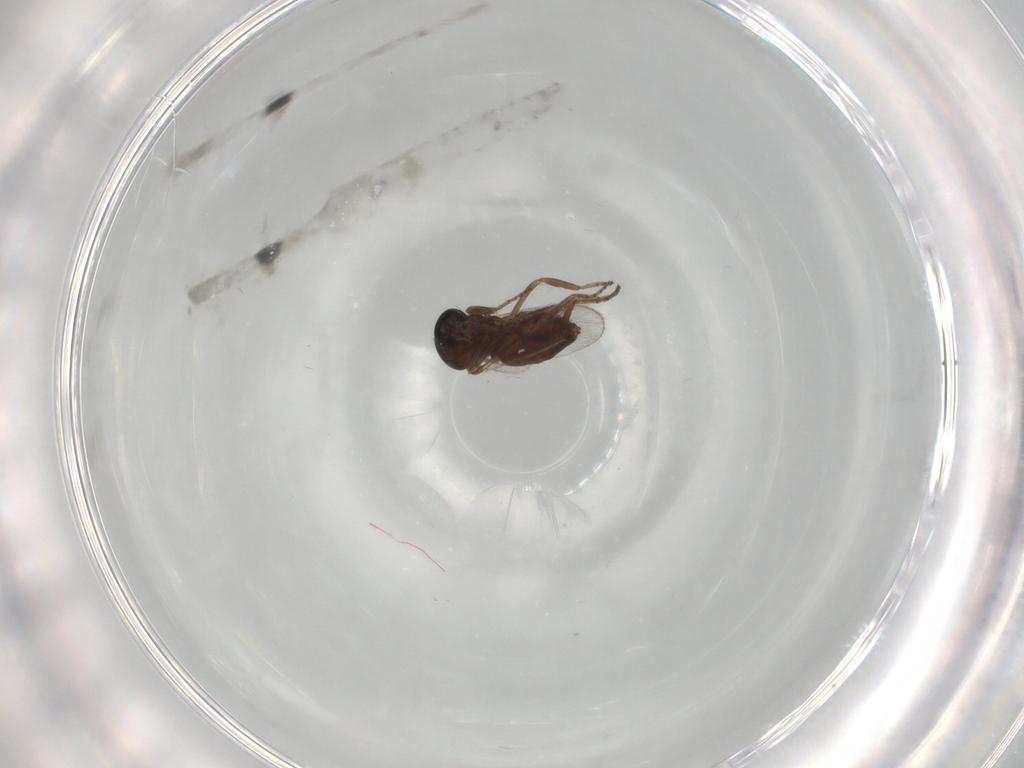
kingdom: Animalia
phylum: Arthropoda
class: Insecta
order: Diptera
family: Ceratopogonidae
